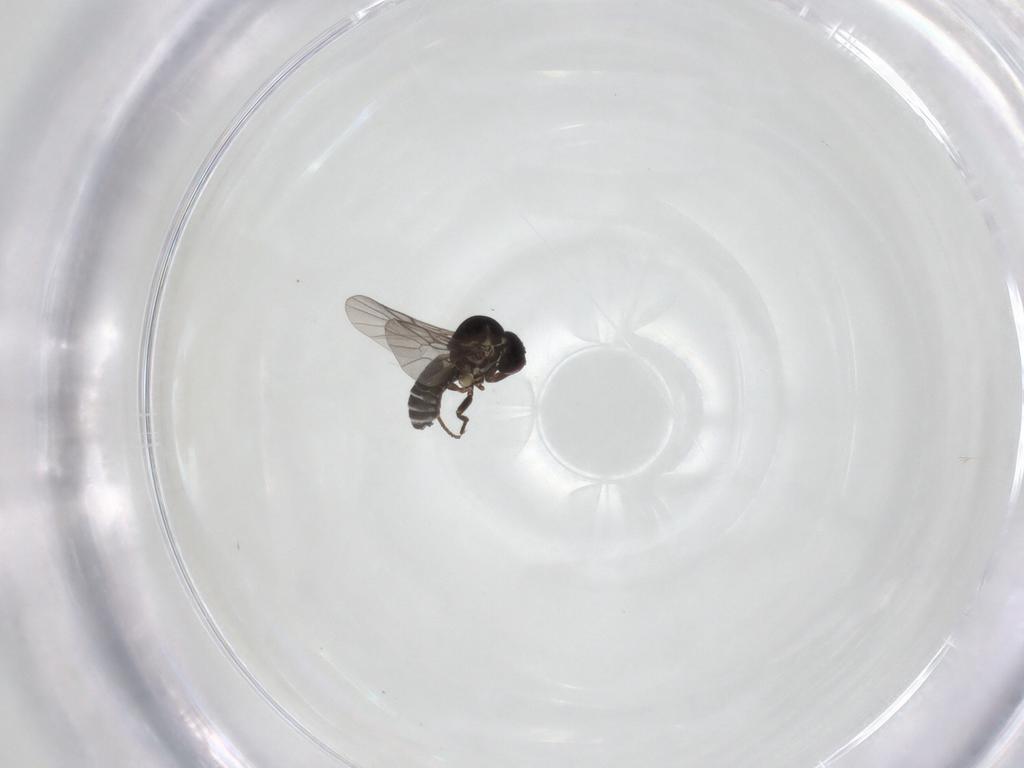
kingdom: Animalia
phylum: Arthropoda
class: Insecta
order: Diptera
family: Mythicomyiidae
